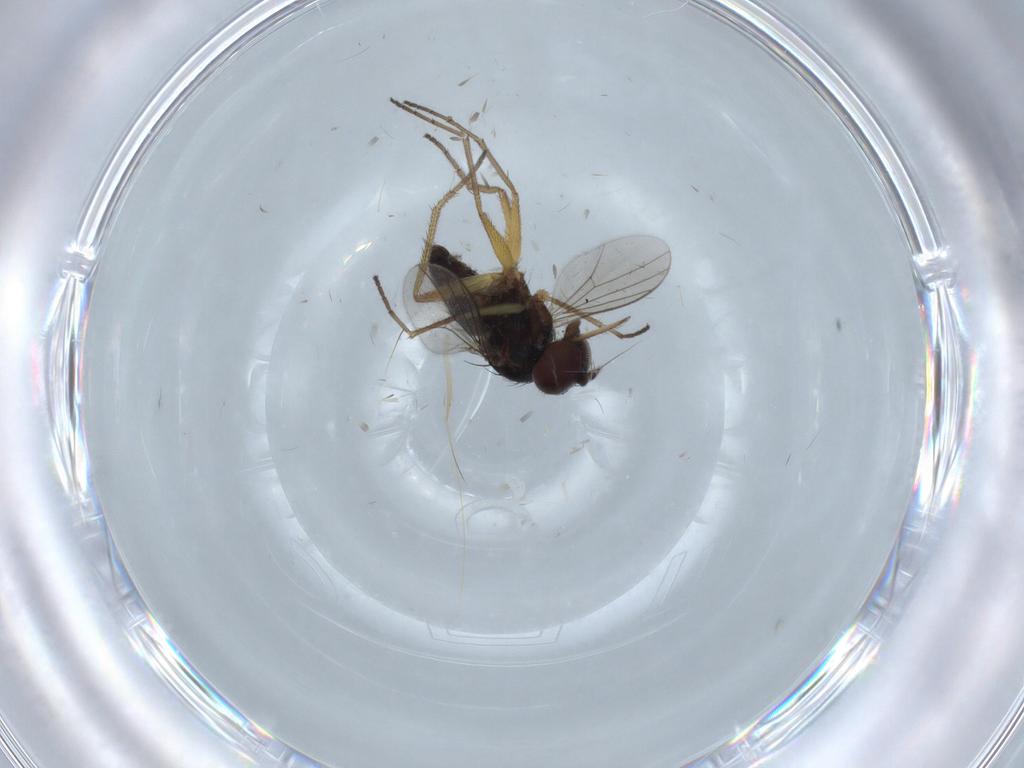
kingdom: Animalia
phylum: Arthropoda
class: Insecta
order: Diptera
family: Dolichopodidae
